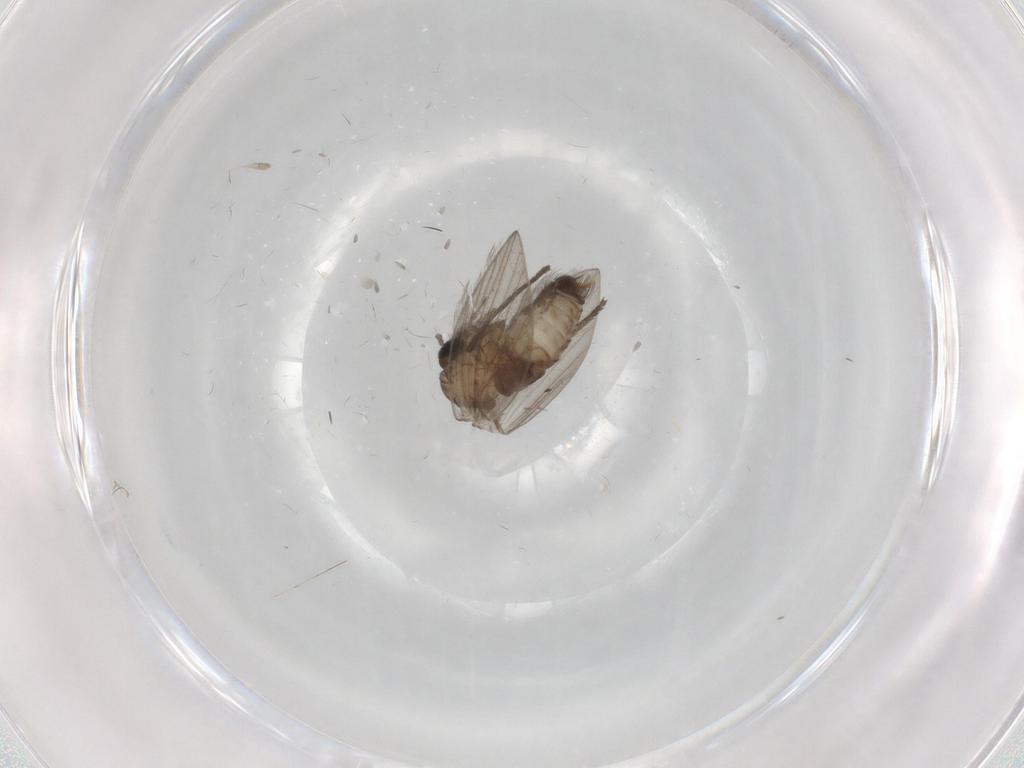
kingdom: Animalia
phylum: Arthropoda
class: Insecta
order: Diptera
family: Psychodidae
